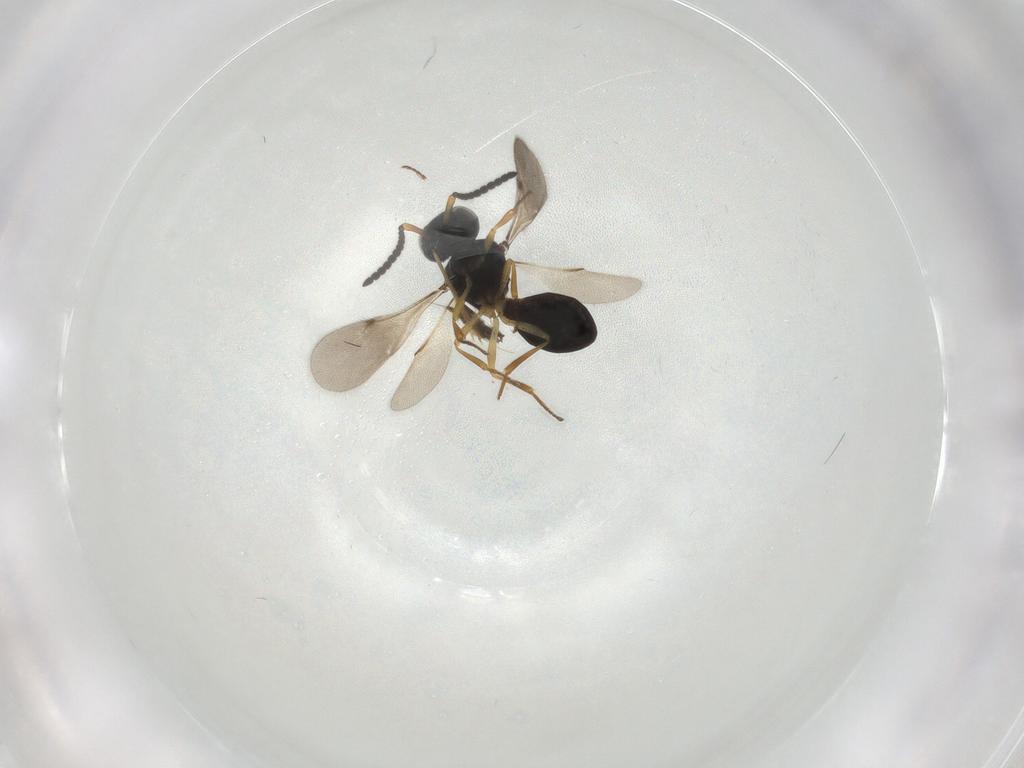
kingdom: Animalia
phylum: Arthropoda
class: Insecta
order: Hymenoptera
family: Scelionidae
